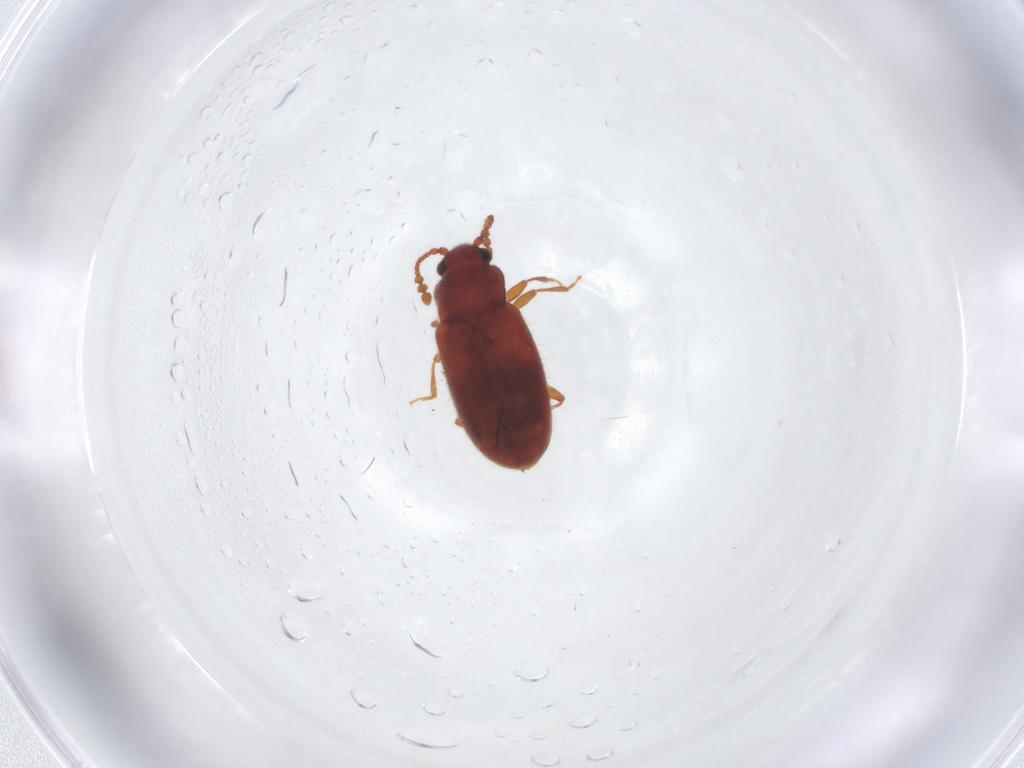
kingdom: Animalia
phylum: Arthropoda
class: Insecta
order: Coleoptera
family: Cryptophagidae
